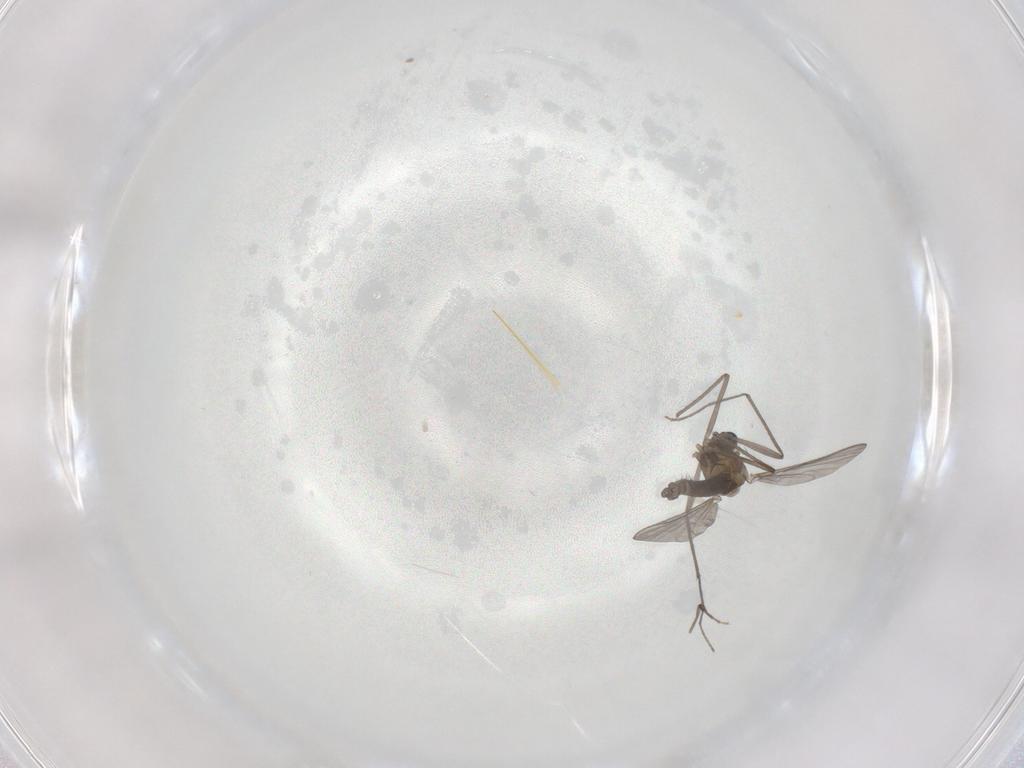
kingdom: Animalia
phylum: Arthropoda
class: Insecta
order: Diptera
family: Chironomidae
